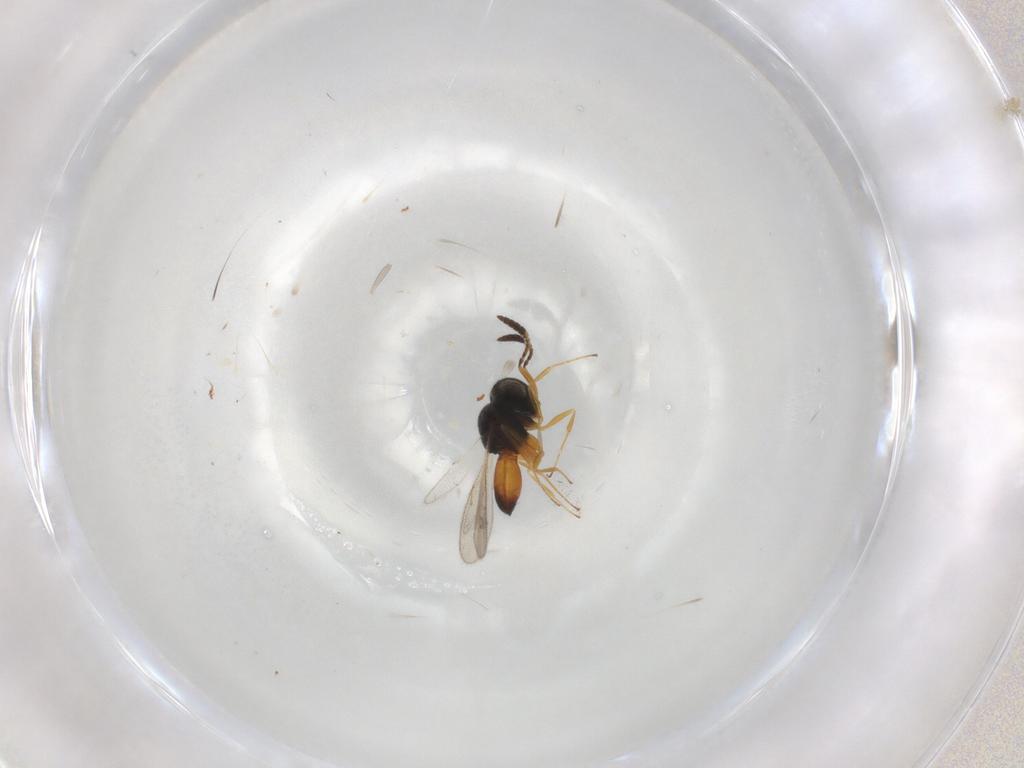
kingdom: Animalia
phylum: Arthropoda
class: Insecta
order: Hymenoptera
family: Scelionidae
